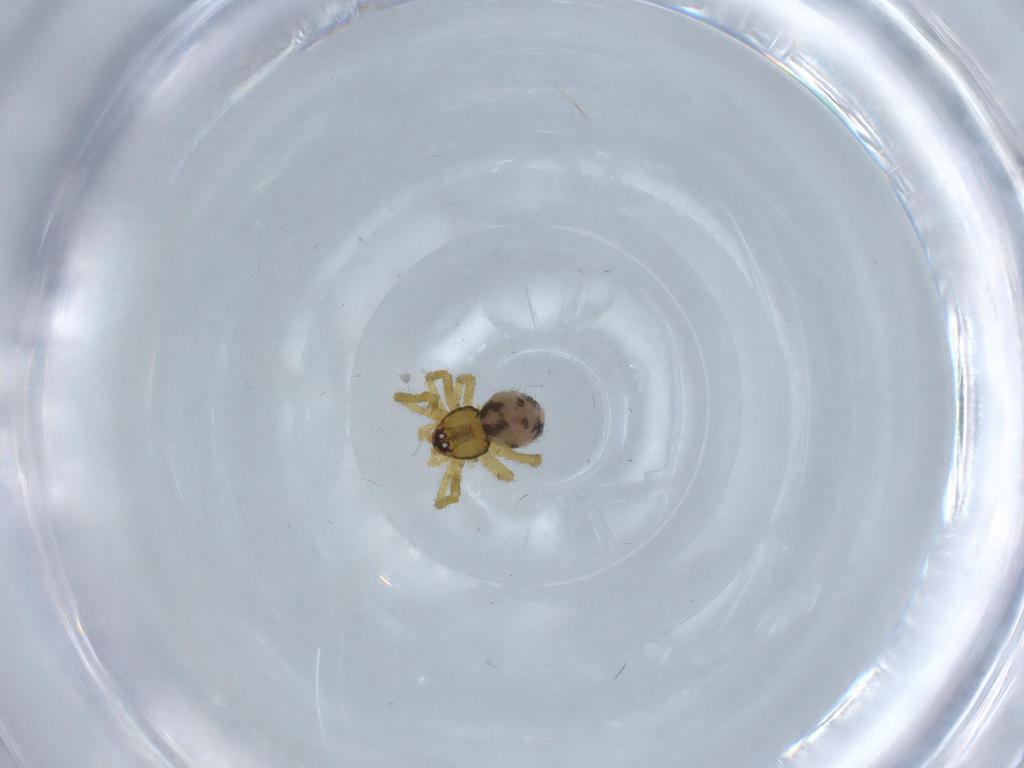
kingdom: Animalia
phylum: Arthropoda
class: Arachnida
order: Araneae
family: Theridiidae
